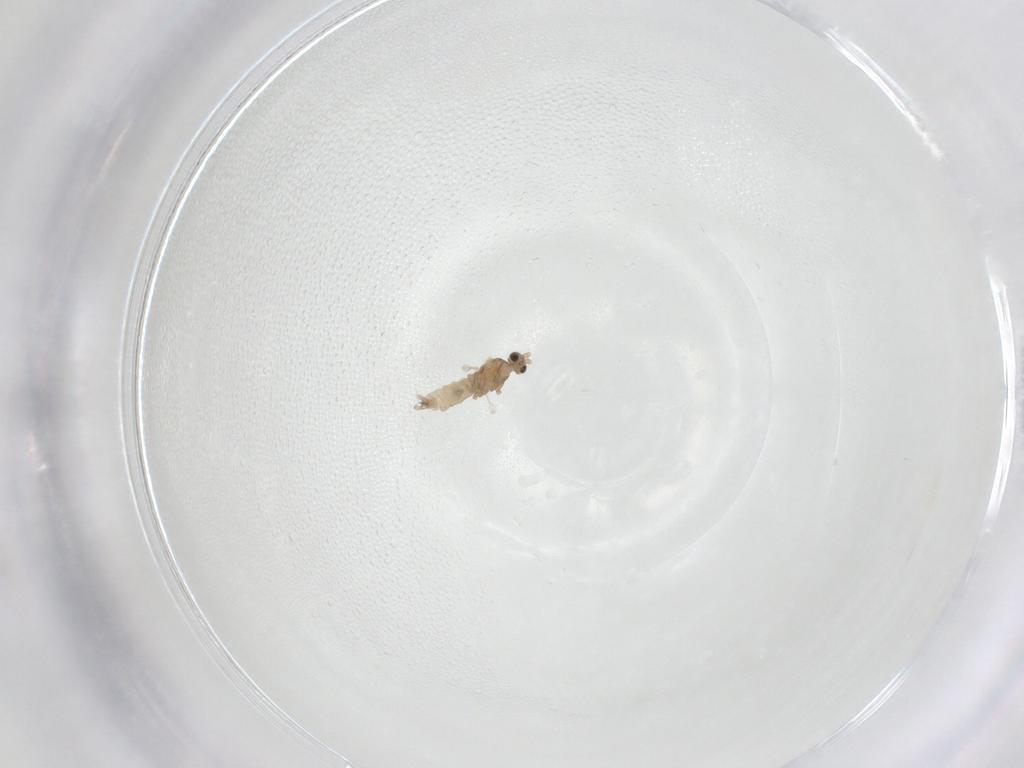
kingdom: Animalia
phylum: Arthropoda
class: Insecta
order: Diptera
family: Cecidomyiidae
